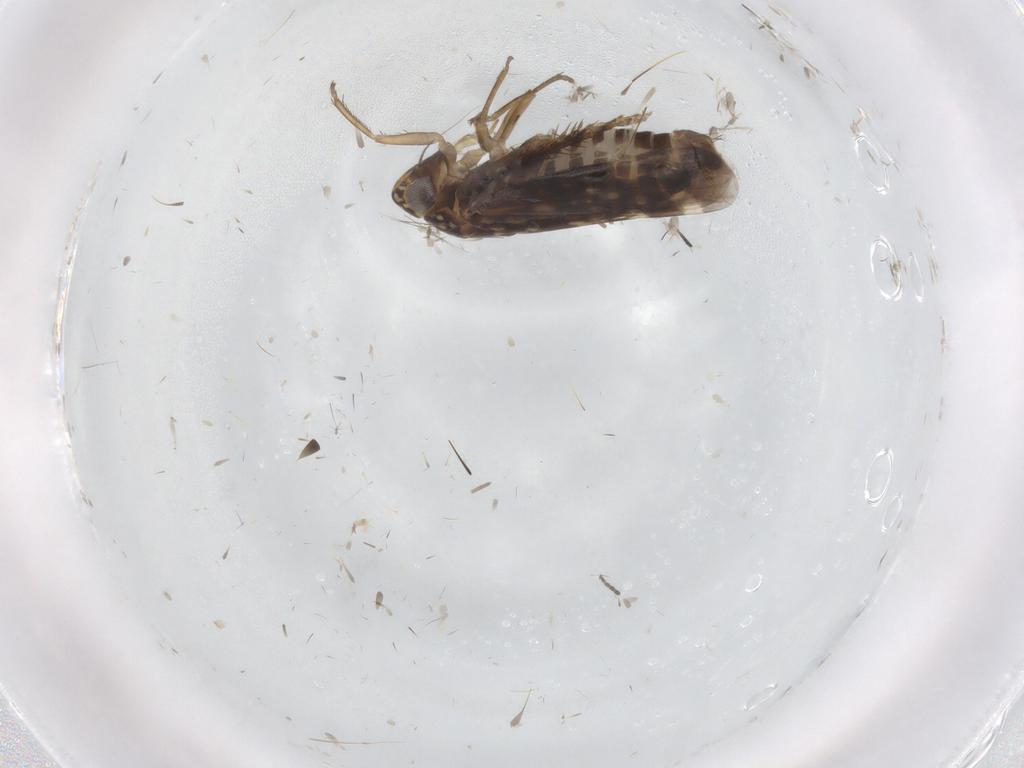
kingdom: Animalia
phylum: Arthropoda
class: Insecta
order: Hemiptera
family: Cicadellidae
